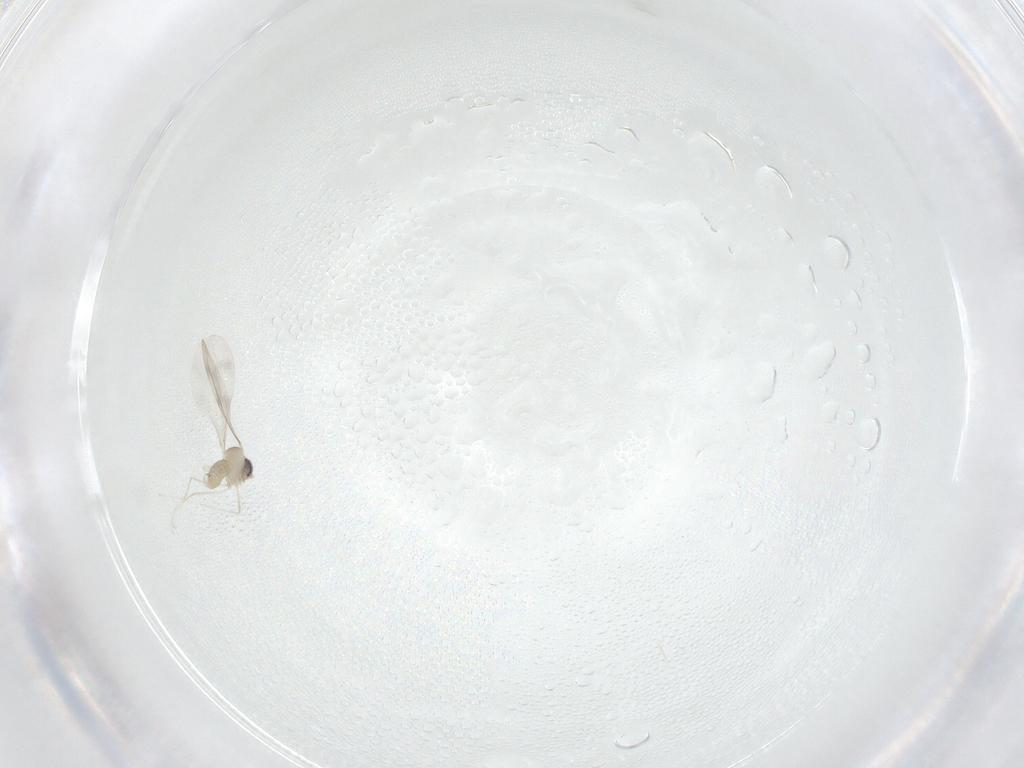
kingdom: Animalia
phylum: Arthropoda
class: Insecta
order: Diptera
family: Cecidomyiidae
